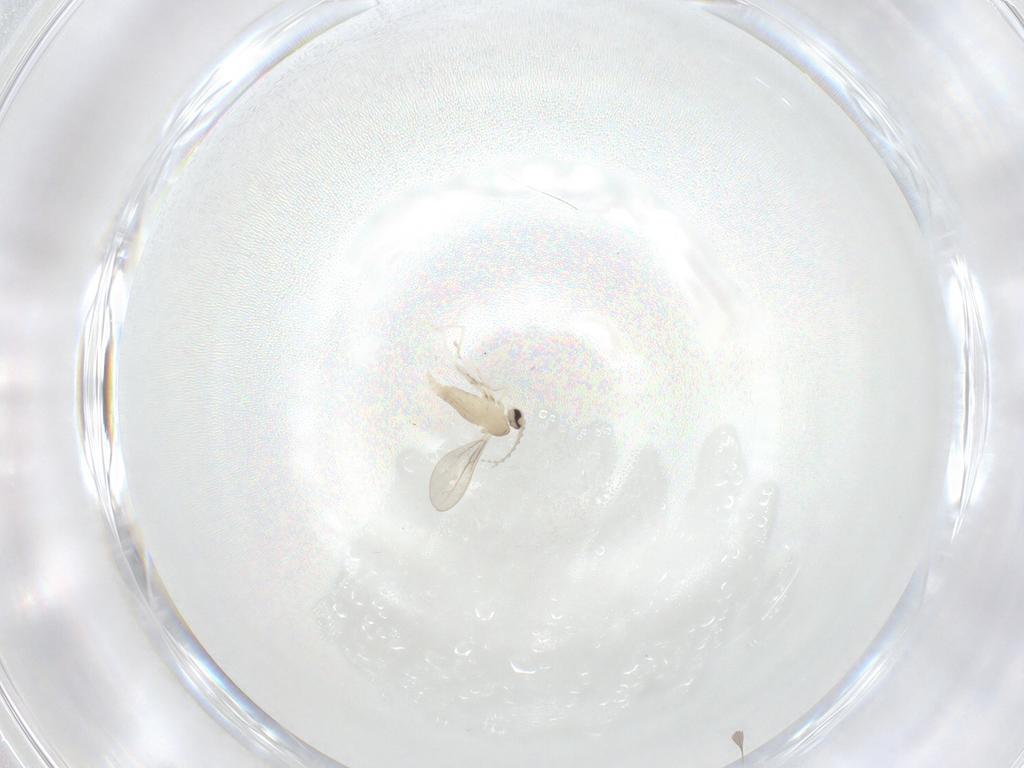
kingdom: Animalia
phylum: Arthropoda
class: Insecta
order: Diptera
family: Cecidomyiidae
